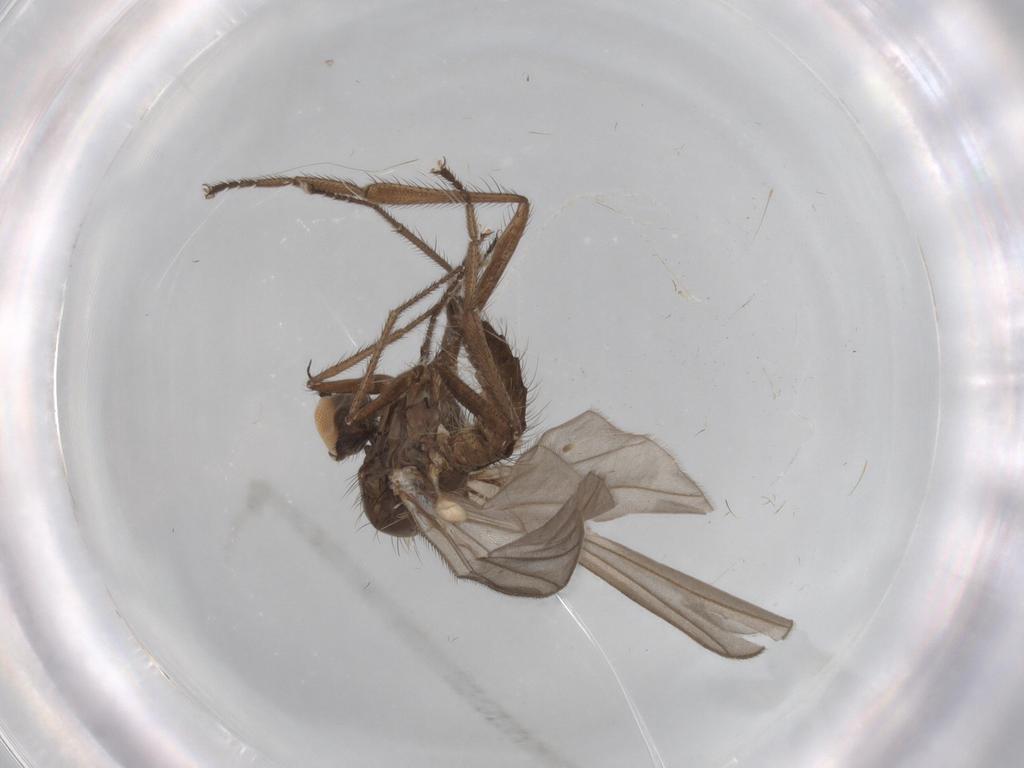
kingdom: Animalia
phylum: Arthropoda
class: Insecta
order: Diptera
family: Hybotidae
